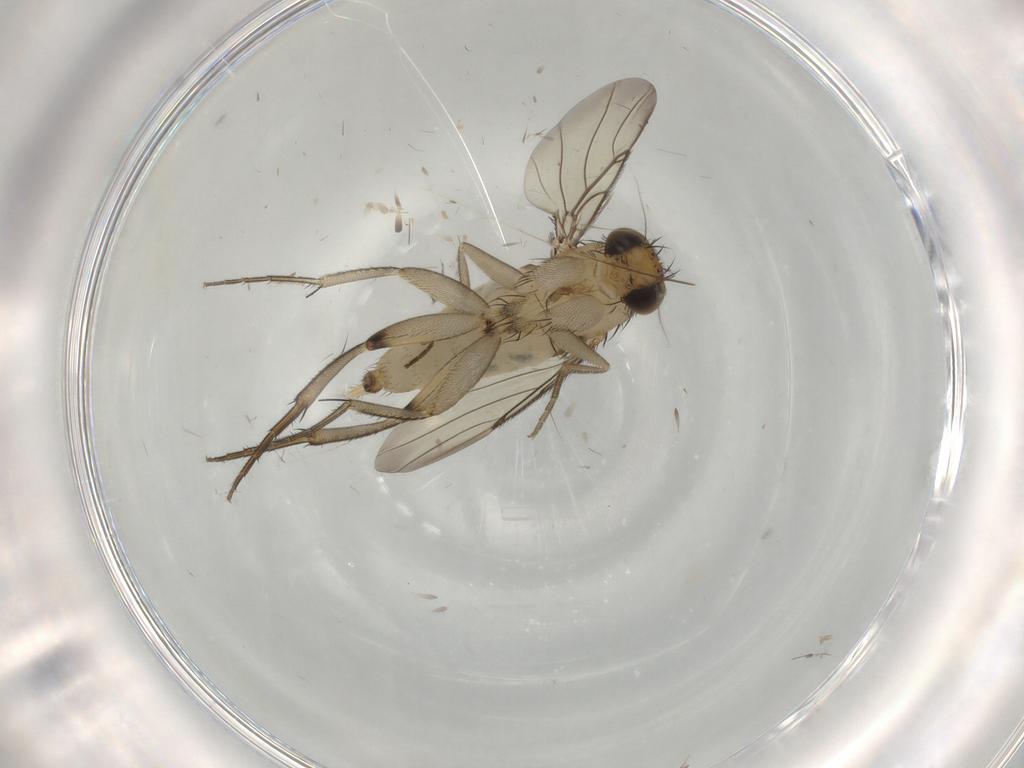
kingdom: Animalia
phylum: Arthropoda
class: Insecta
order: Diptera
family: Phoridae
